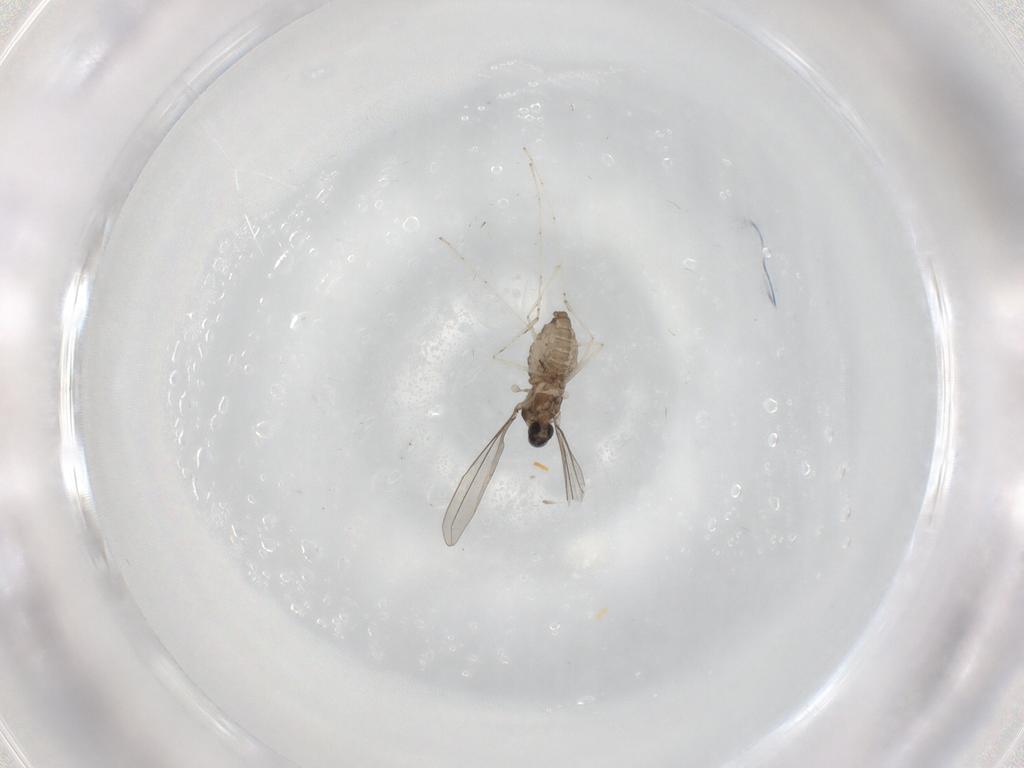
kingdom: Animalia
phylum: Arthropoda
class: Insecta
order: Diptera
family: Cecidomyiidae
